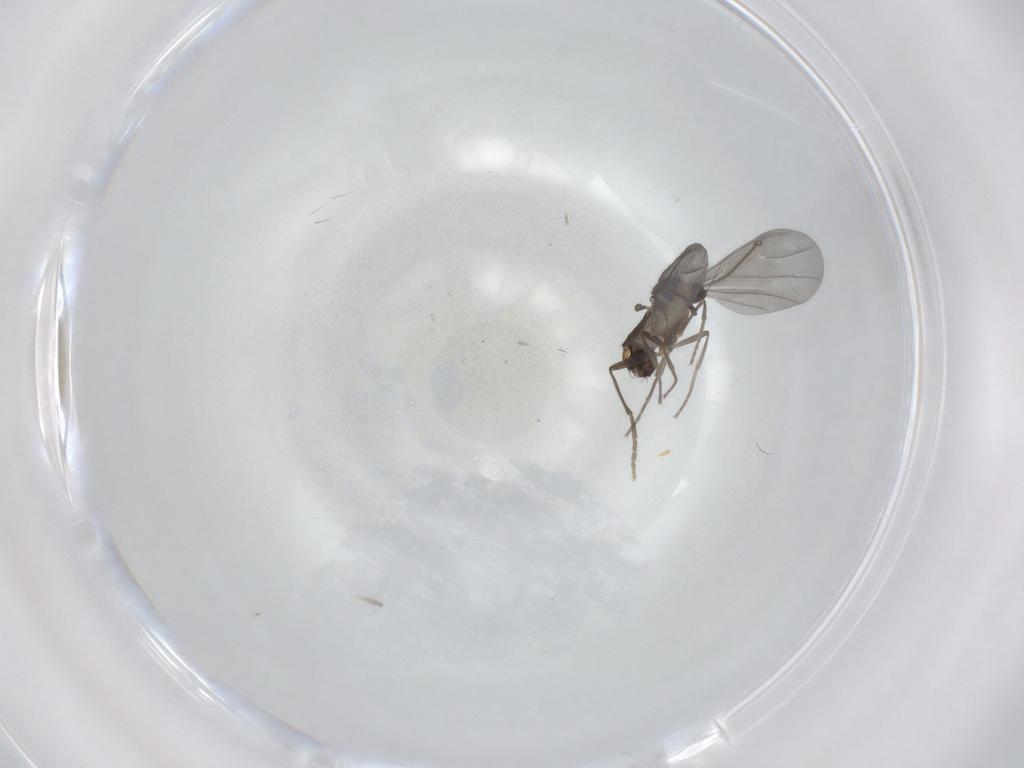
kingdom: Animalia
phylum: Arthropoda
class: Insecta
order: Diptera
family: Phoridae
